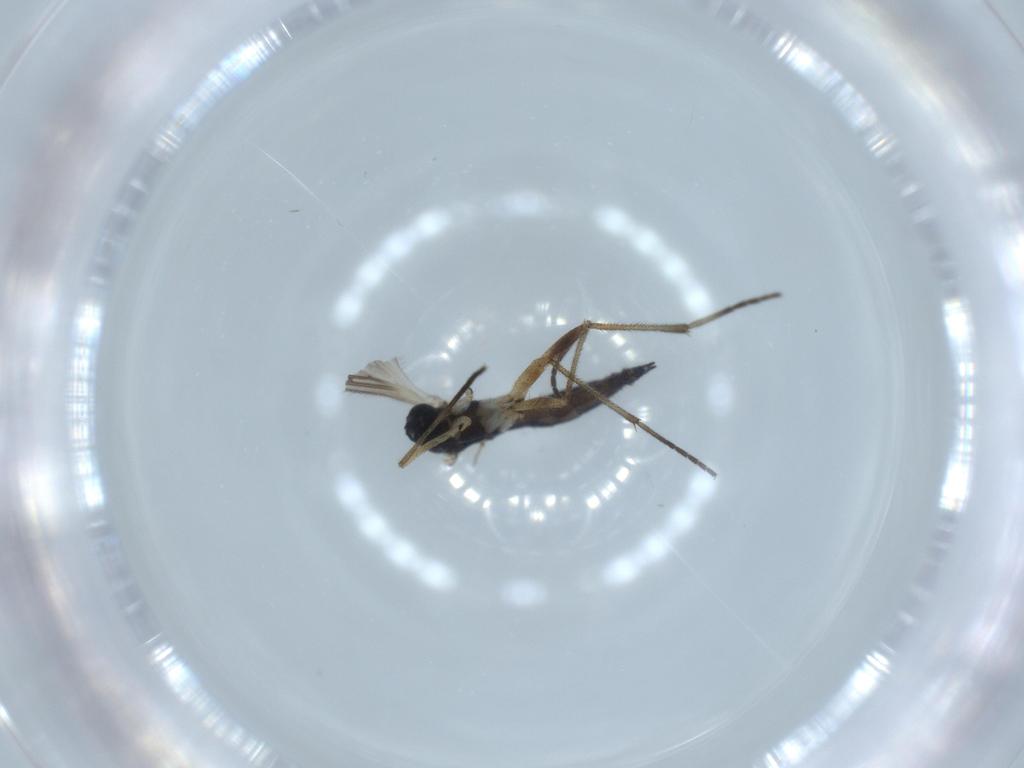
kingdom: Animalia
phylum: Arthropoda
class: Insecta
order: Diptera
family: Sciaridae
